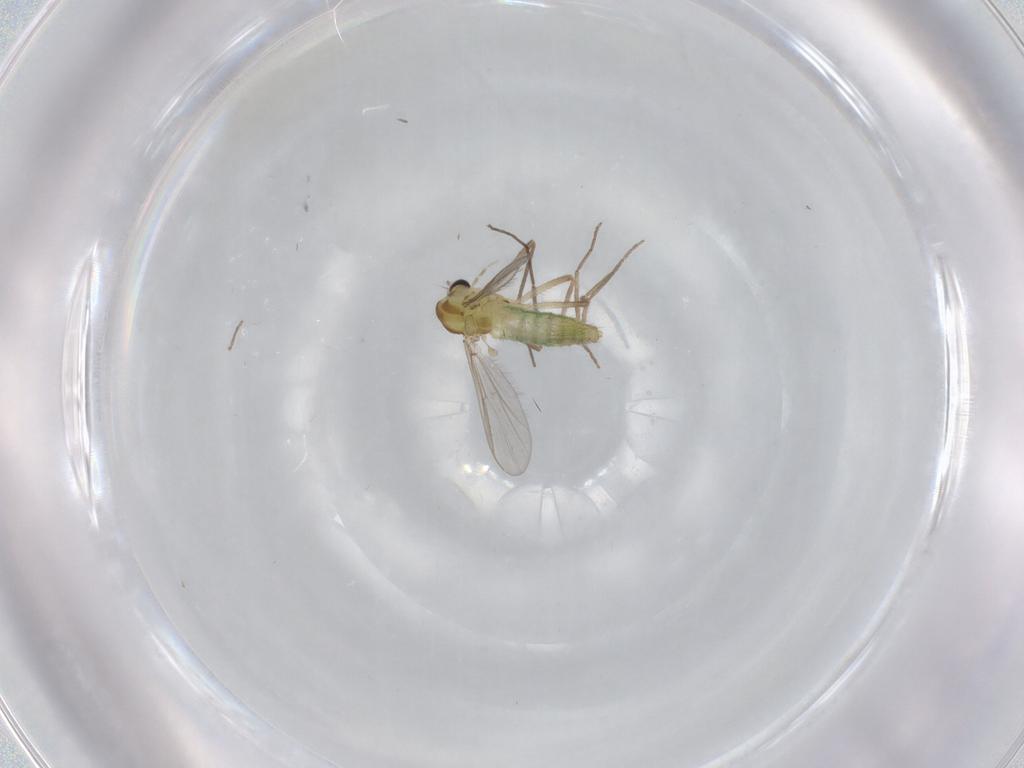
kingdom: Animalia
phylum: Arthropoda
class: Insecta
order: Diptera
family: Chironomidae
